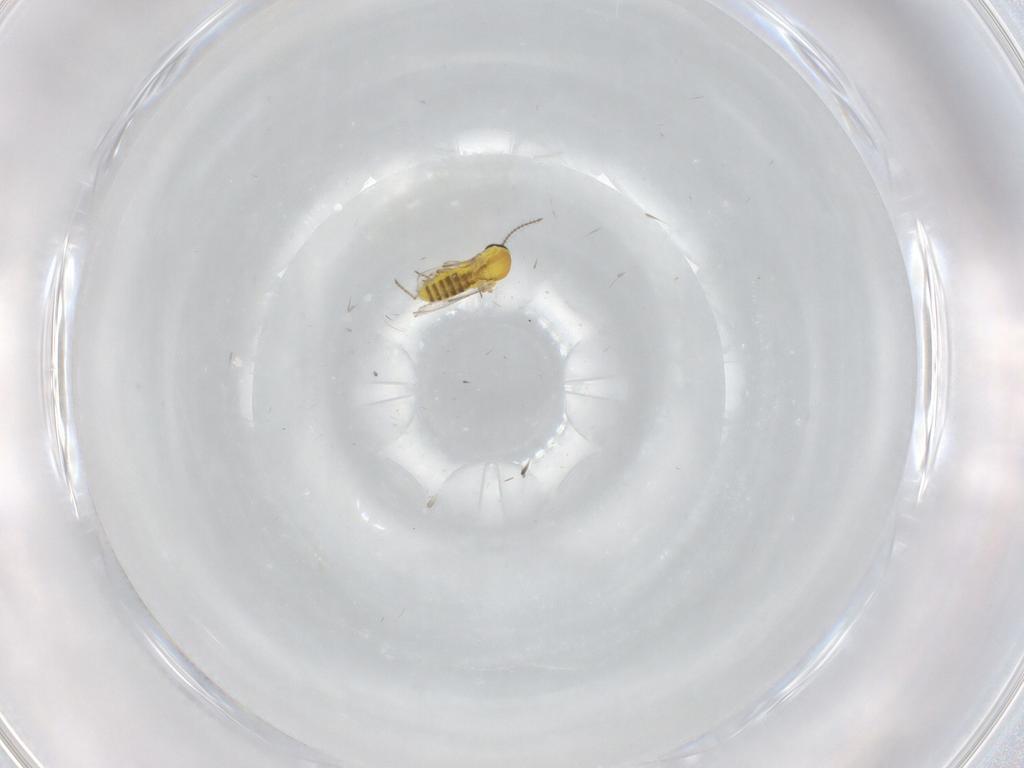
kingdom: Animalia
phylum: Arthropoda
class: Insecta
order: Diptera
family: Ceratopogonidae
